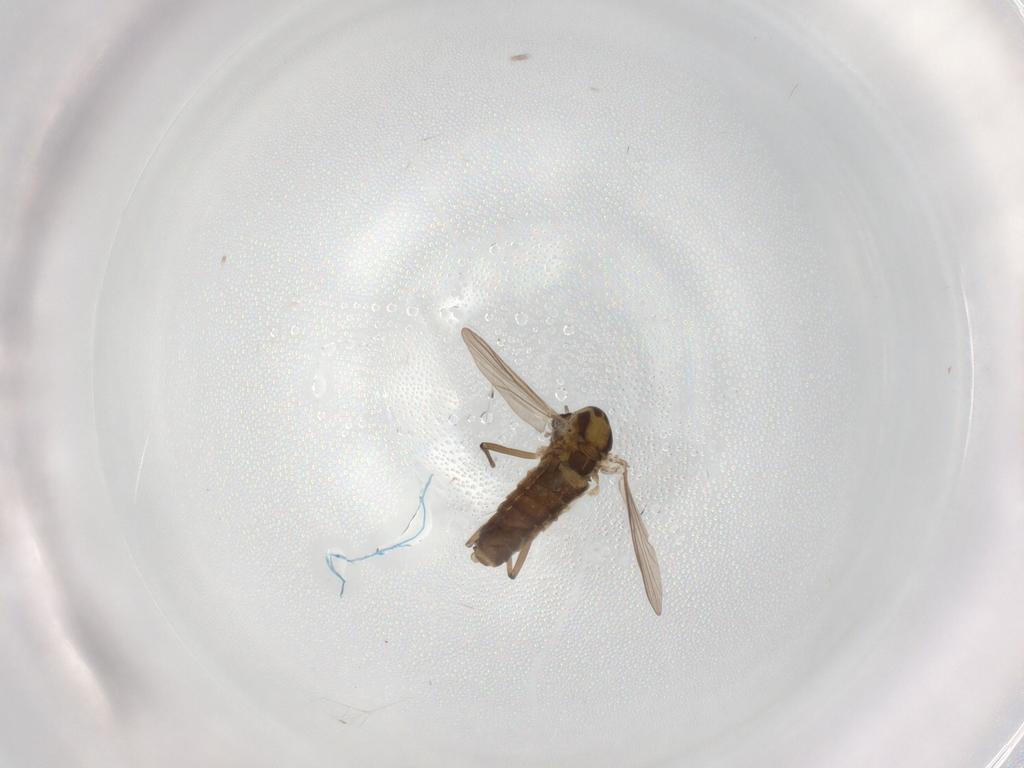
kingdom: Animalia
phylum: Arthropoda
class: Insecta
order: Diptera
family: Chironomidae
